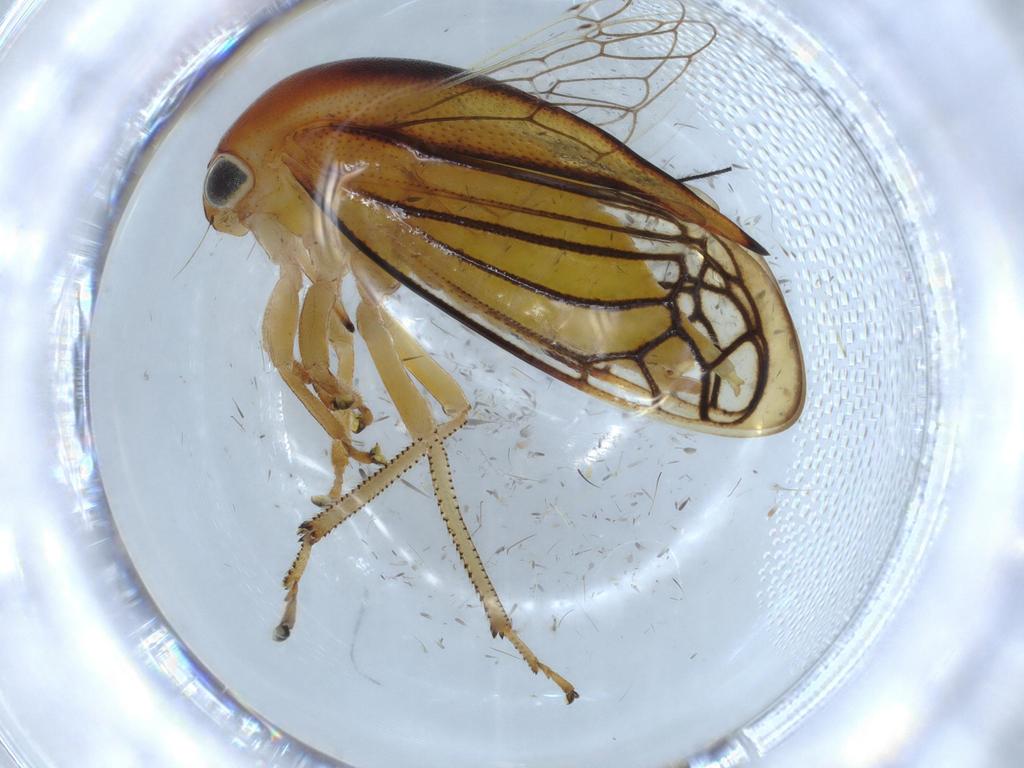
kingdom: Animalia
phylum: Arthropoda
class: Insecta
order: Hemiptera
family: Membracidae
